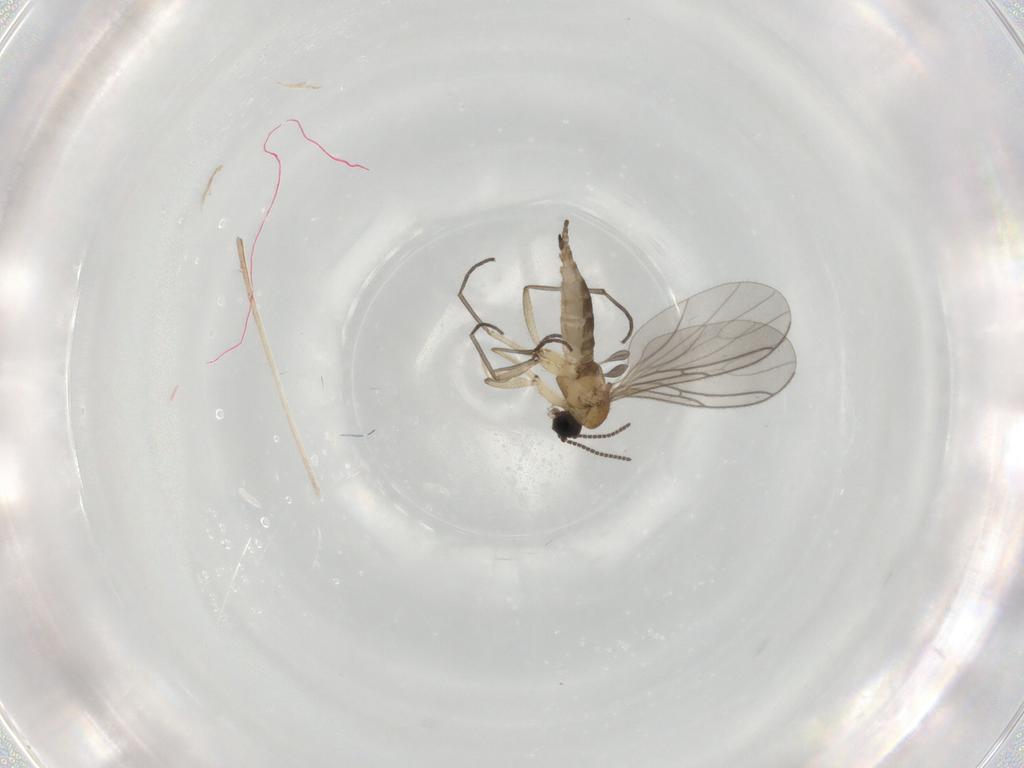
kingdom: Animalia
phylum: Arthropoda
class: Insecta
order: Diptera
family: Sciaridae
